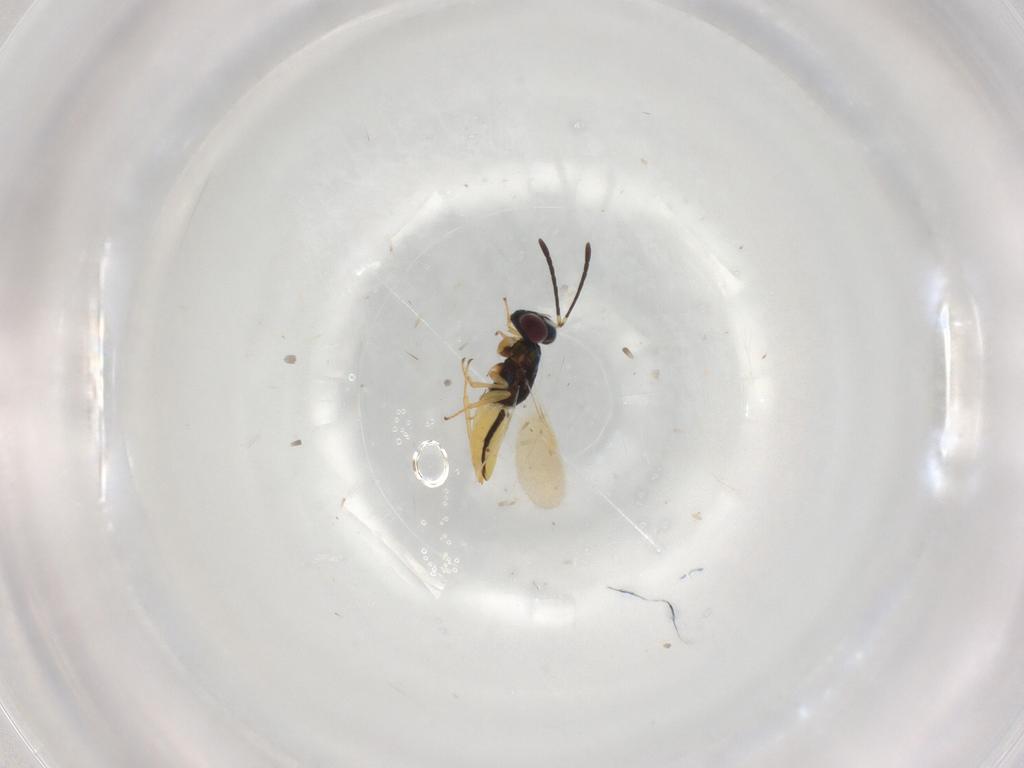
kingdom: Animalia
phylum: Arthropoda
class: Insecta
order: Hymenoptera
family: Encyrtidae
